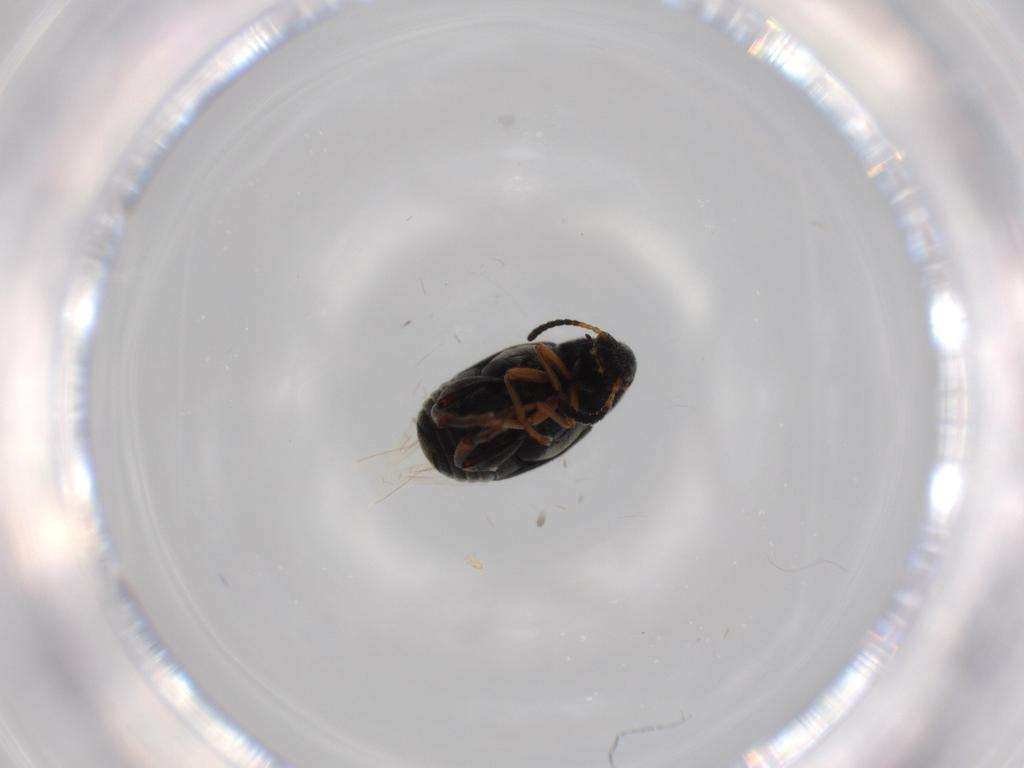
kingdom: Animalia
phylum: Arthropoda
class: Insecta
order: Coleoptera
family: Chrysomelidae
